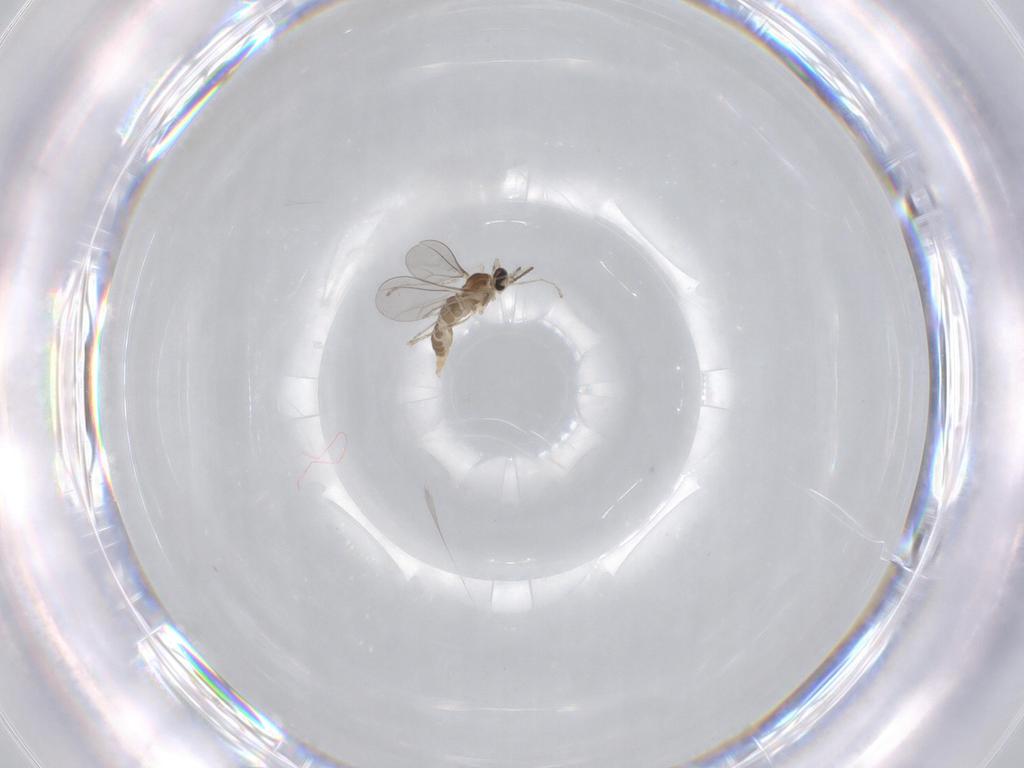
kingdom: Animalia
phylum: Arthropoda
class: Insecta
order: Diptera
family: Cecidomyiidae
